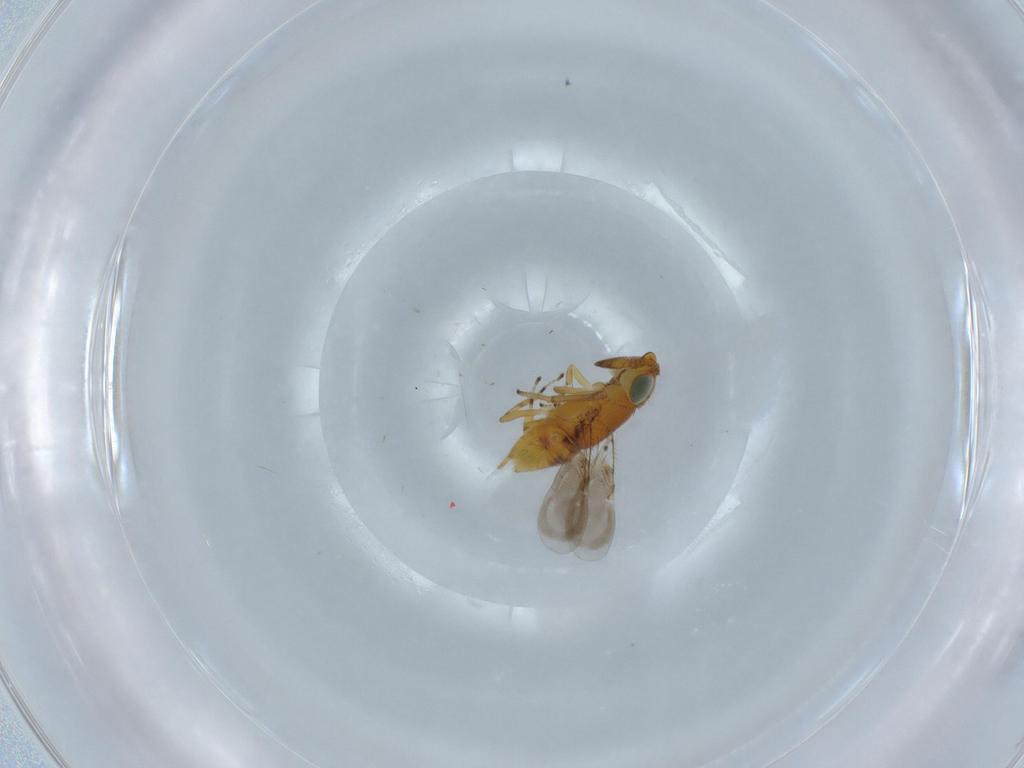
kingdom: Animalia
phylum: Arthropoda
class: Insecta
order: Hymenoptera
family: Encyrtidae
